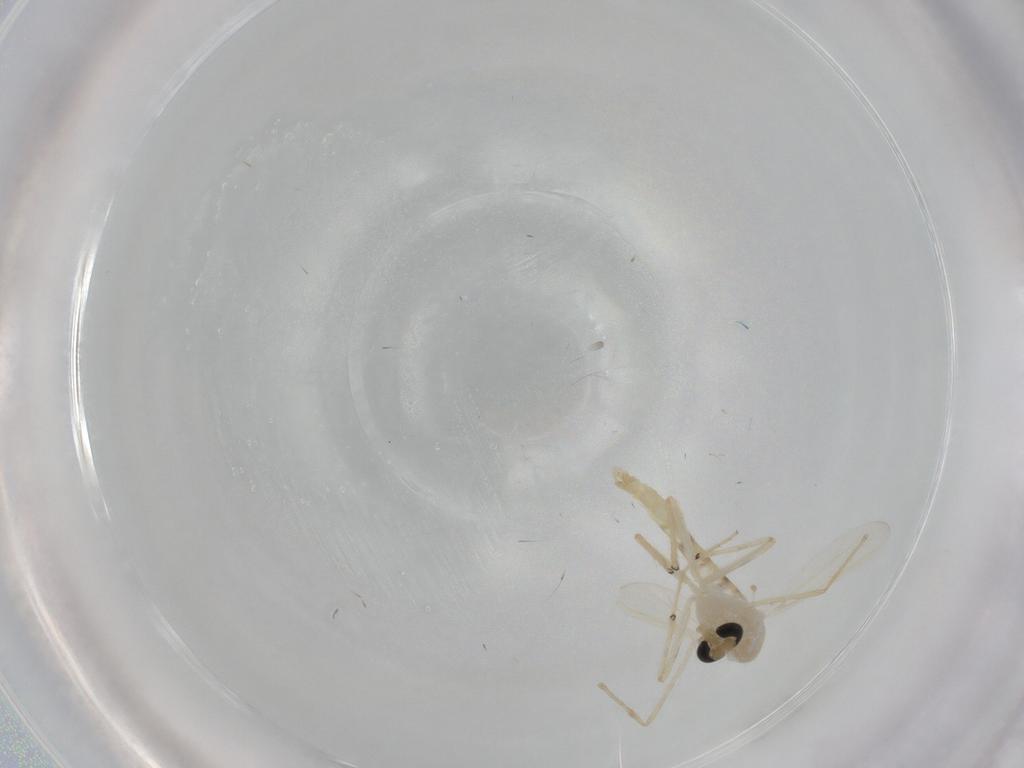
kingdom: Animalia
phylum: Arthropoda
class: Insecta
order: Diptera
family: Chironomidae
